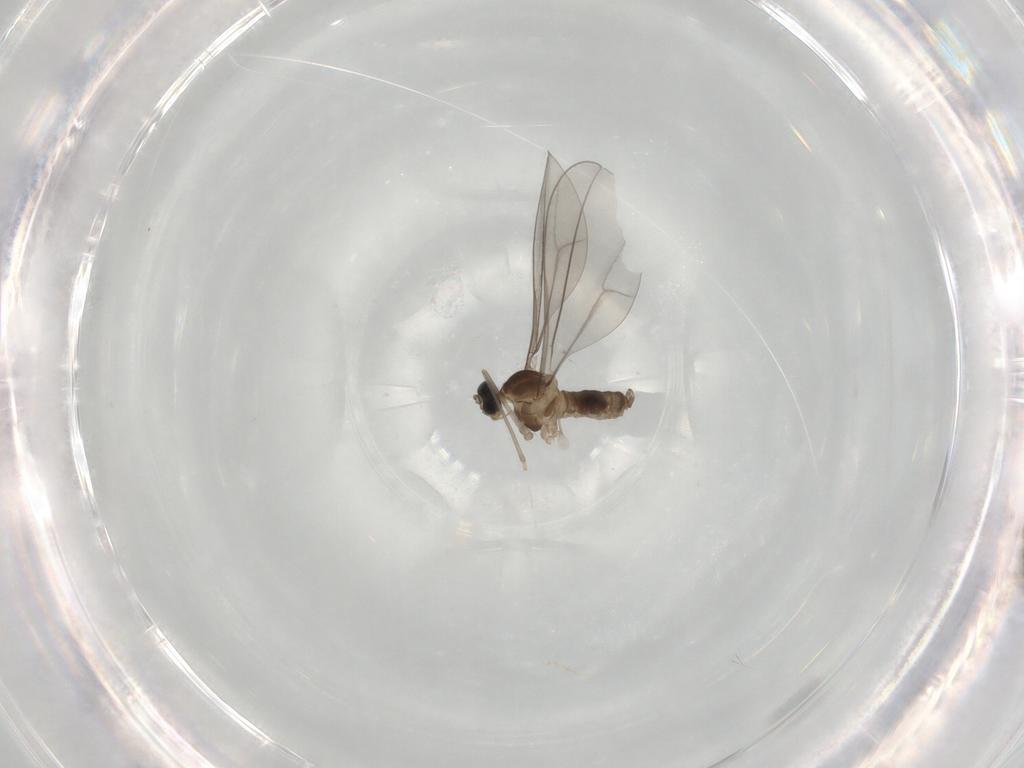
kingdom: Animalia
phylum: Arthropoda
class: Insecta
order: Diptera
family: Cecidomyiidae
